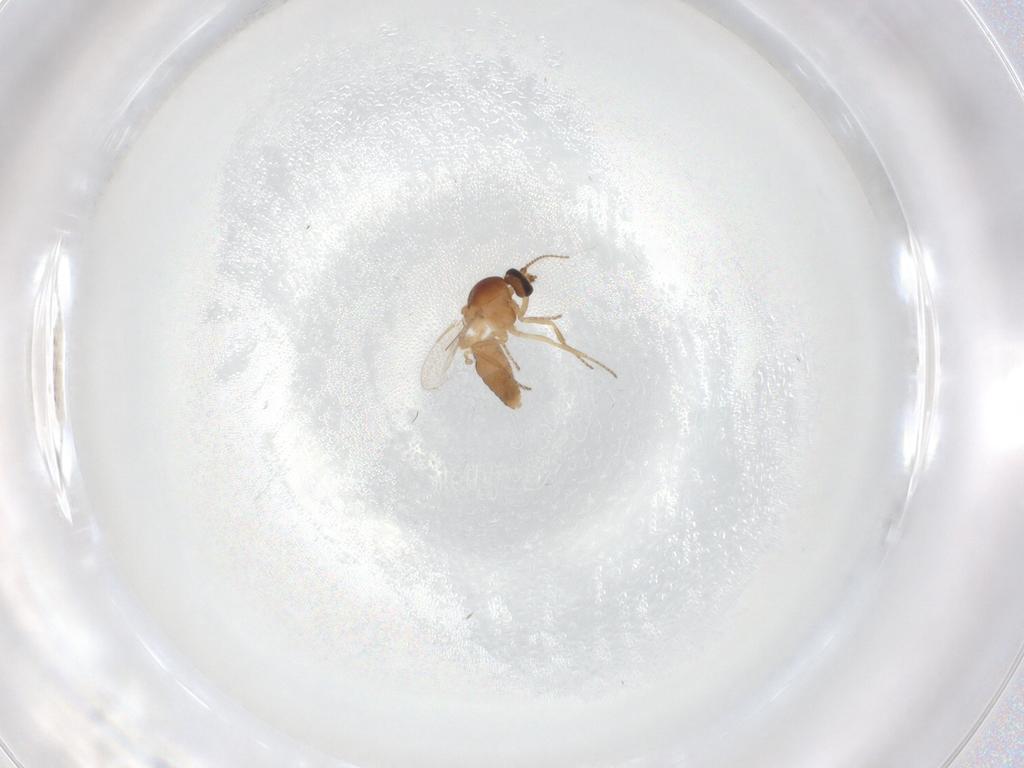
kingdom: Animalia
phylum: Arthropoda
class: Insecta
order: Diptera
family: Ceratopogonidae
